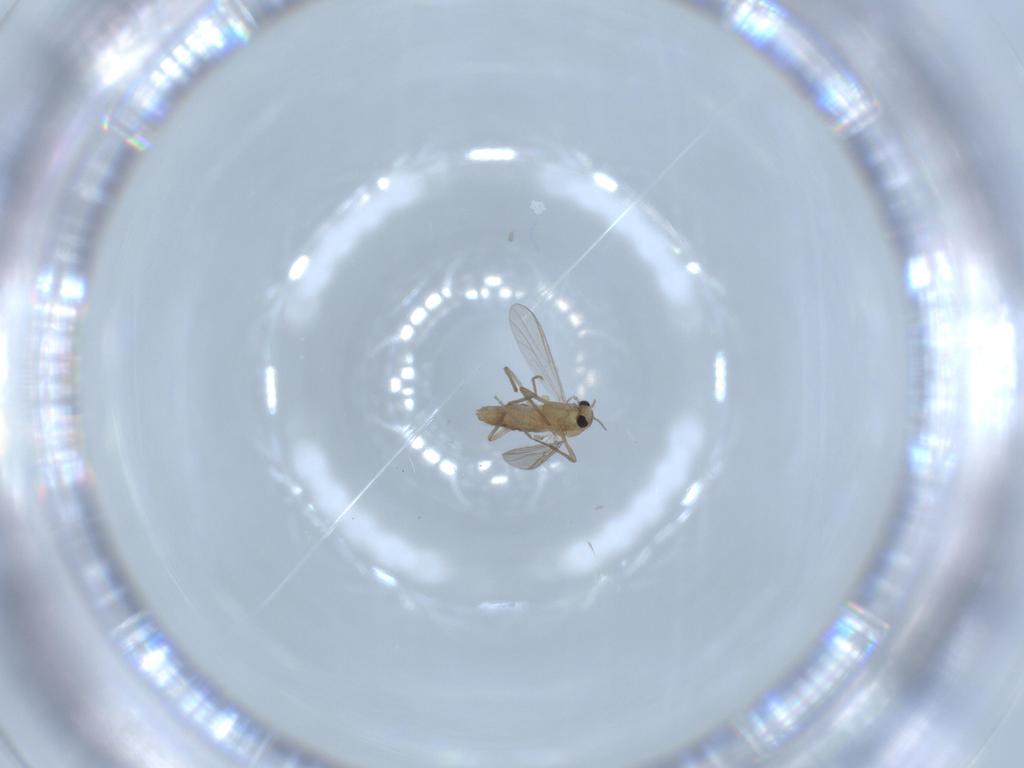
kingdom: Animalia
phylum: Arthropoda
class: Insecta
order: Diptera
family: Chironomidae
